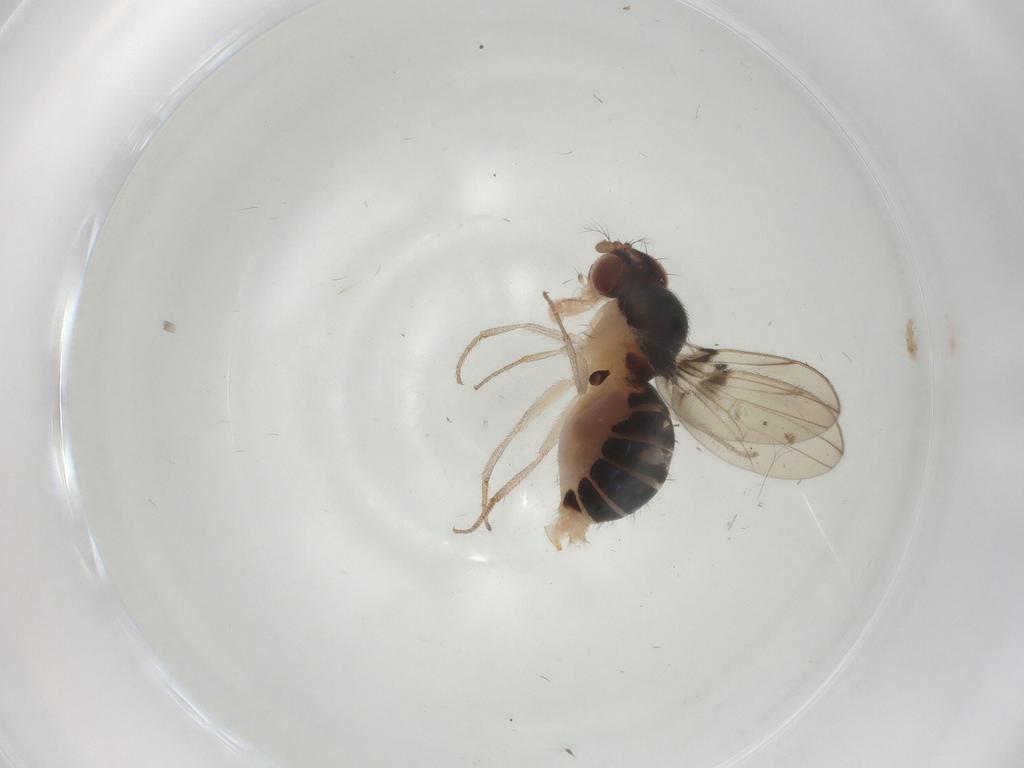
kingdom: Animalia
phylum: Arthropoda
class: Insecta
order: Diptera
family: Drosophilidae
